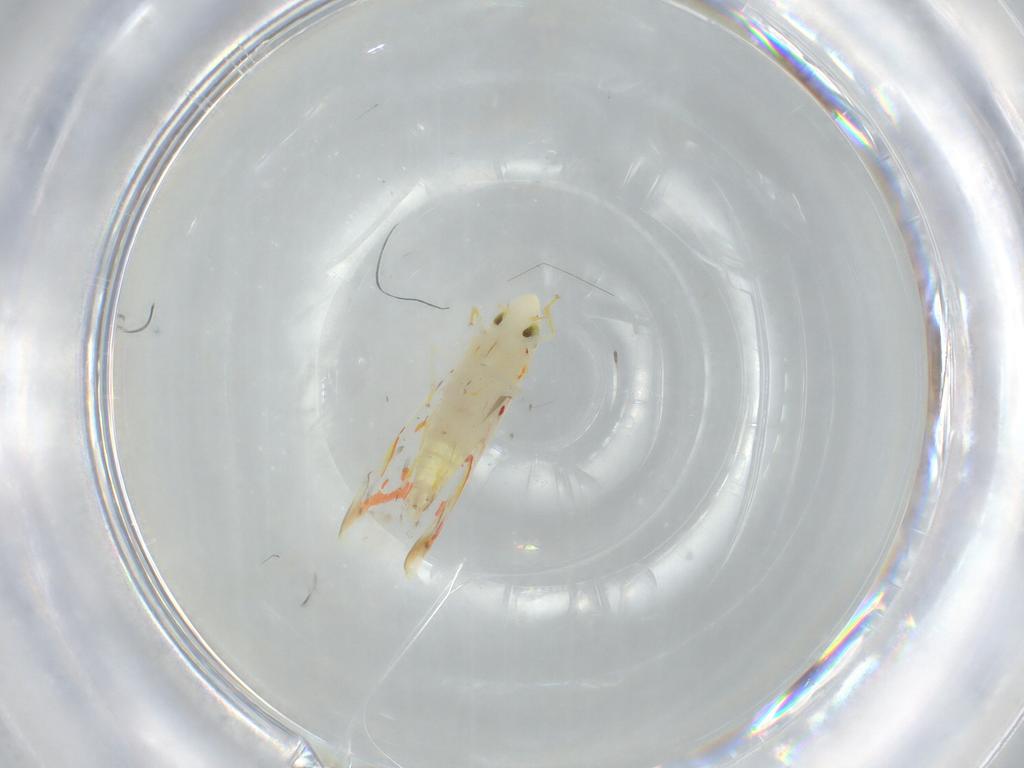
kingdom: Animalia
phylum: Arthropoda
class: Insecta
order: Hemiptera
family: Cicadellidae
